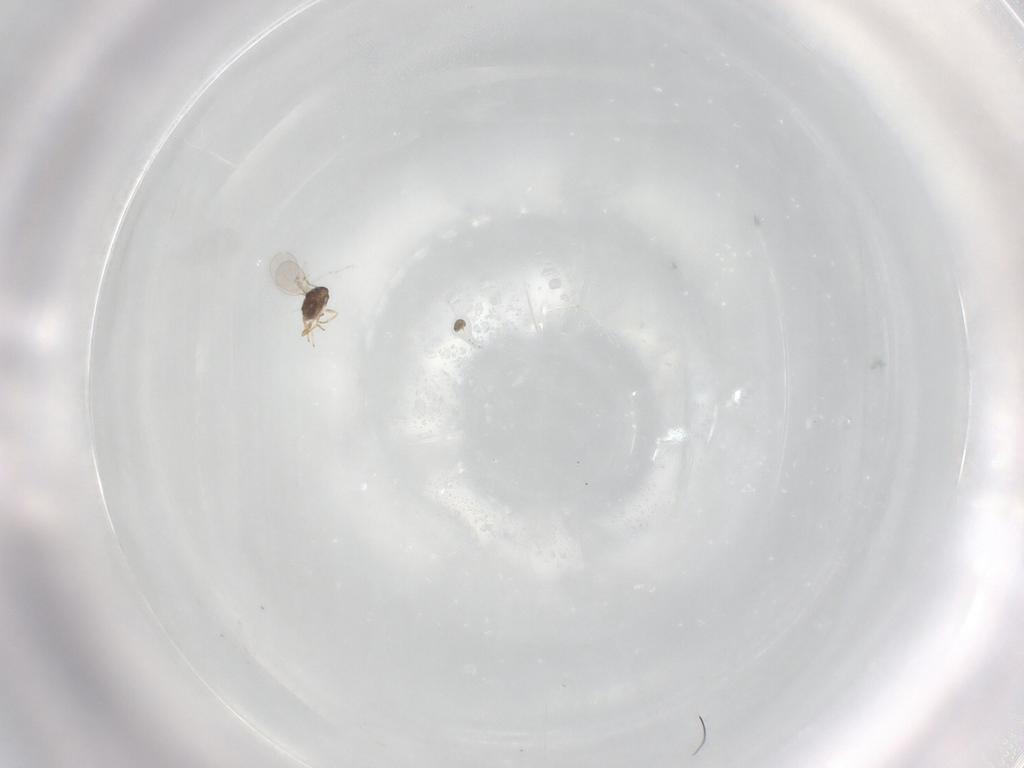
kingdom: Animalia
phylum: Arthropoda
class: Insecta
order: Hymenoptera
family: Encyrtidae
